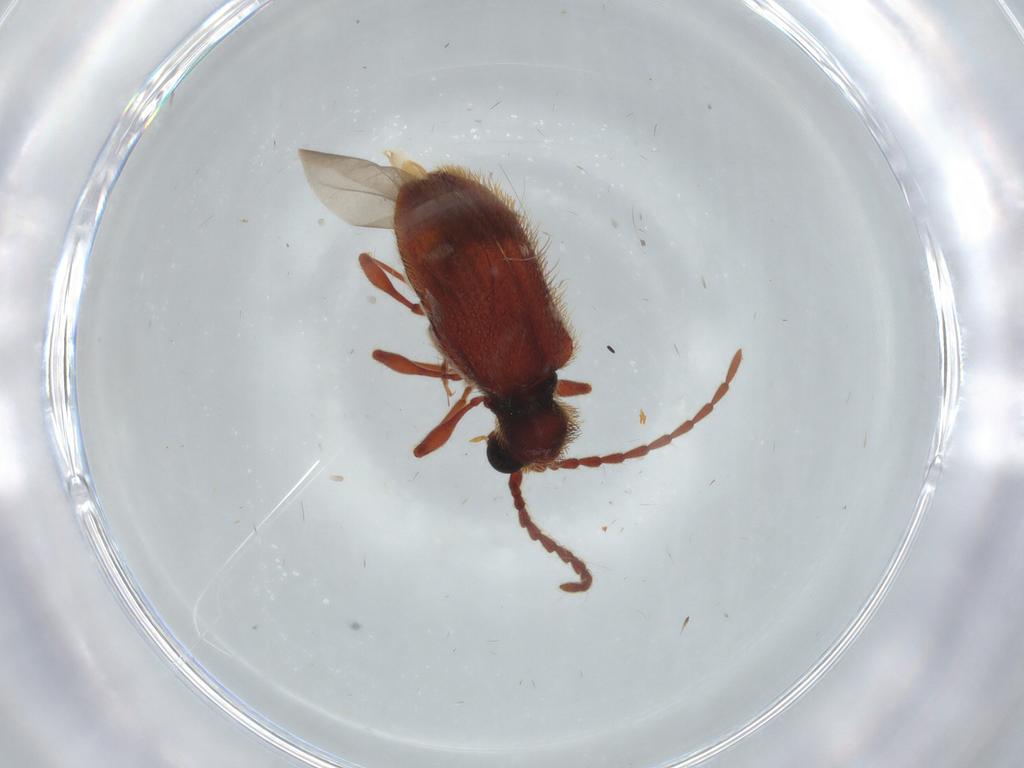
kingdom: Animalia
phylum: Arthropoda
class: Insecta
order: Coleoptera
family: Ptinidae
